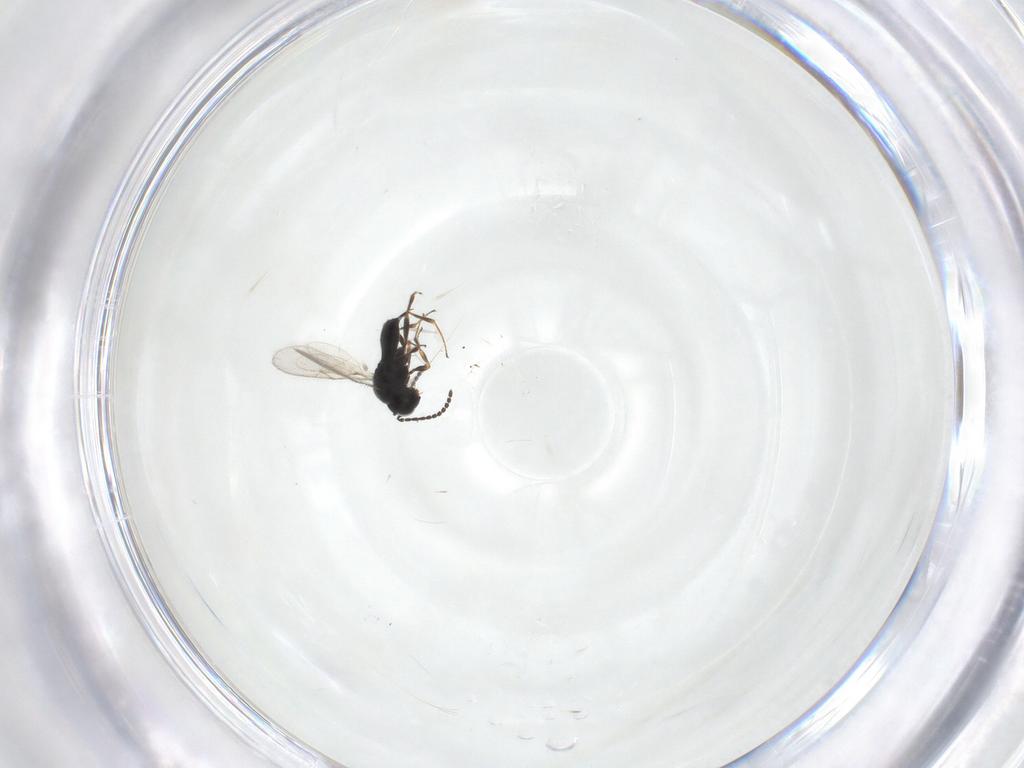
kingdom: Animalia
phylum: Arthropoda
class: Insecta
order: Hymenoptera
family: Scelionidae
